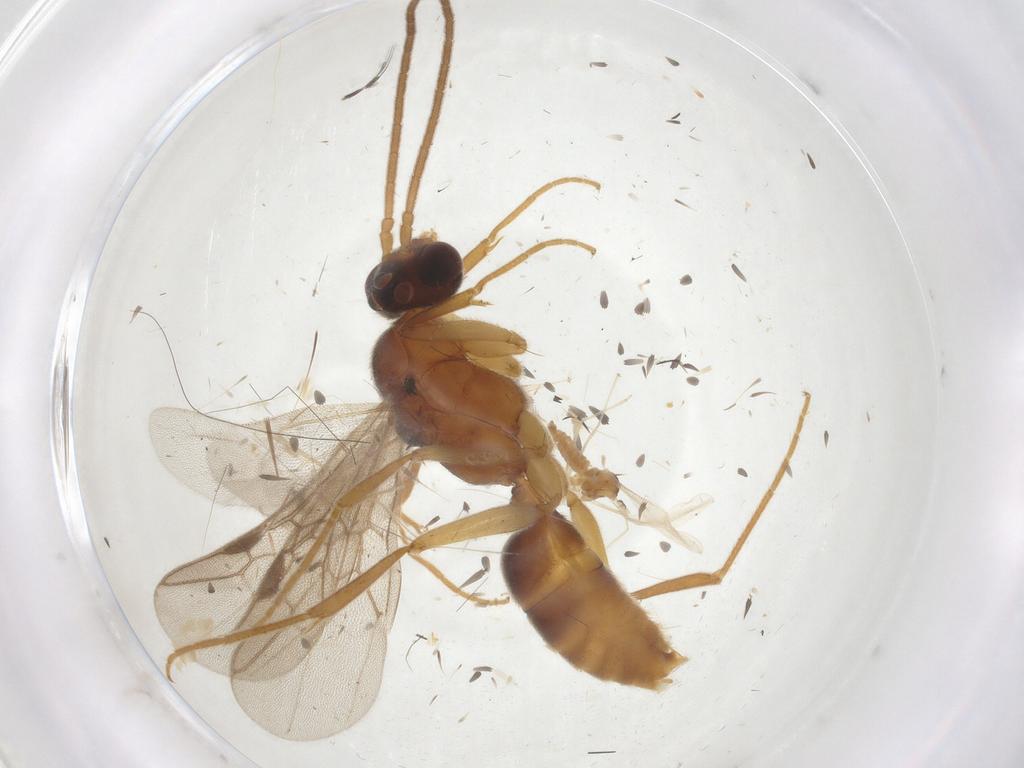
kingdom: Animalia
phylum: Arthropoda
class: Insecta
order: Hymenoptera
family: Formicidae
